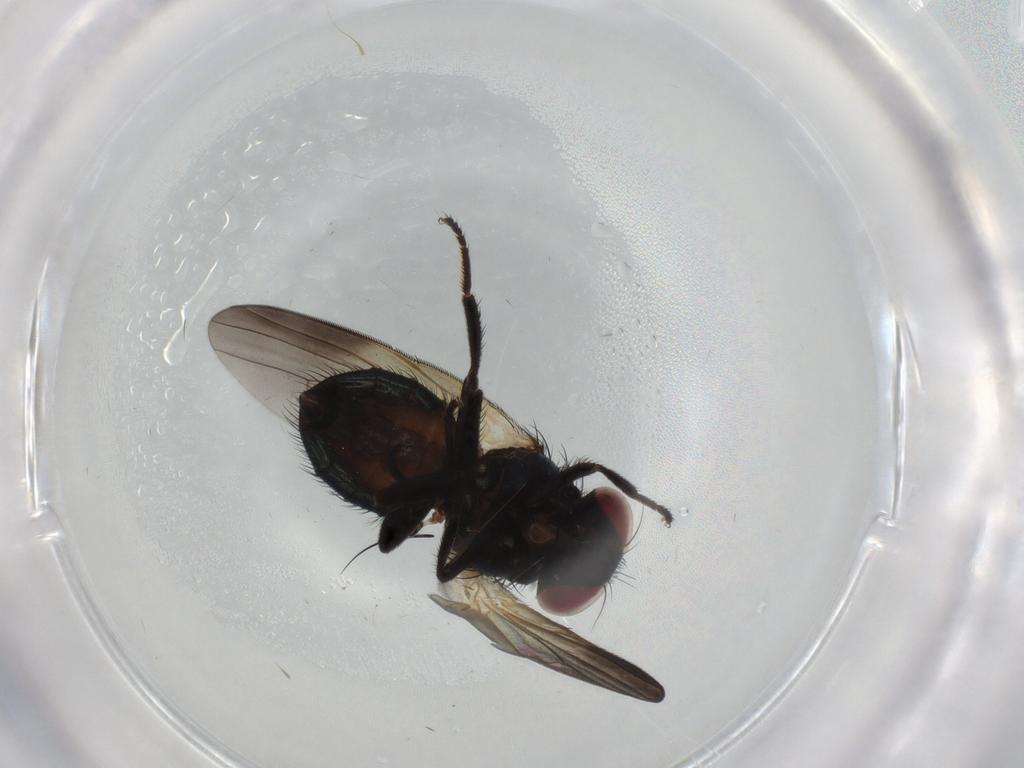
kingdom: Animalia
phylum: Arthropoda
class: Insecta
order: Diptera
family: Chironomidae
